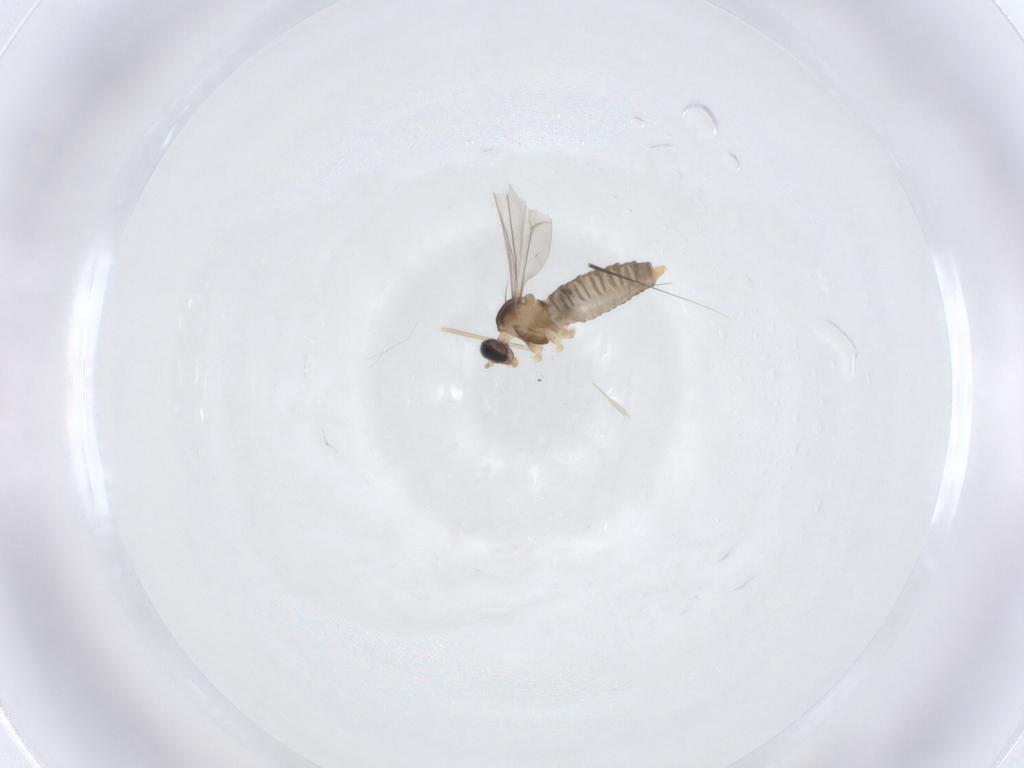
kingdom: Animalia
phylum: Arthropoda
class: Insecta
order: Diptera
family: Cecidomyiidae
